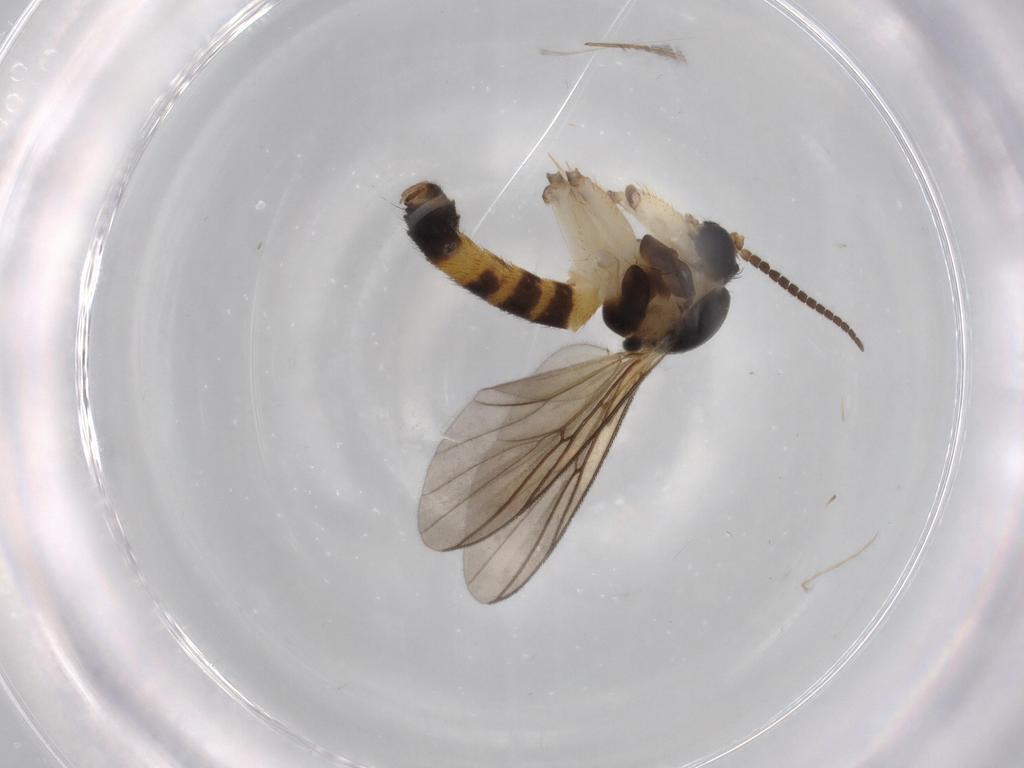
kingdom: Animalia
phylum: Arthropoda
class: Insecta
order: Diptera
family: Mycetophilidae
